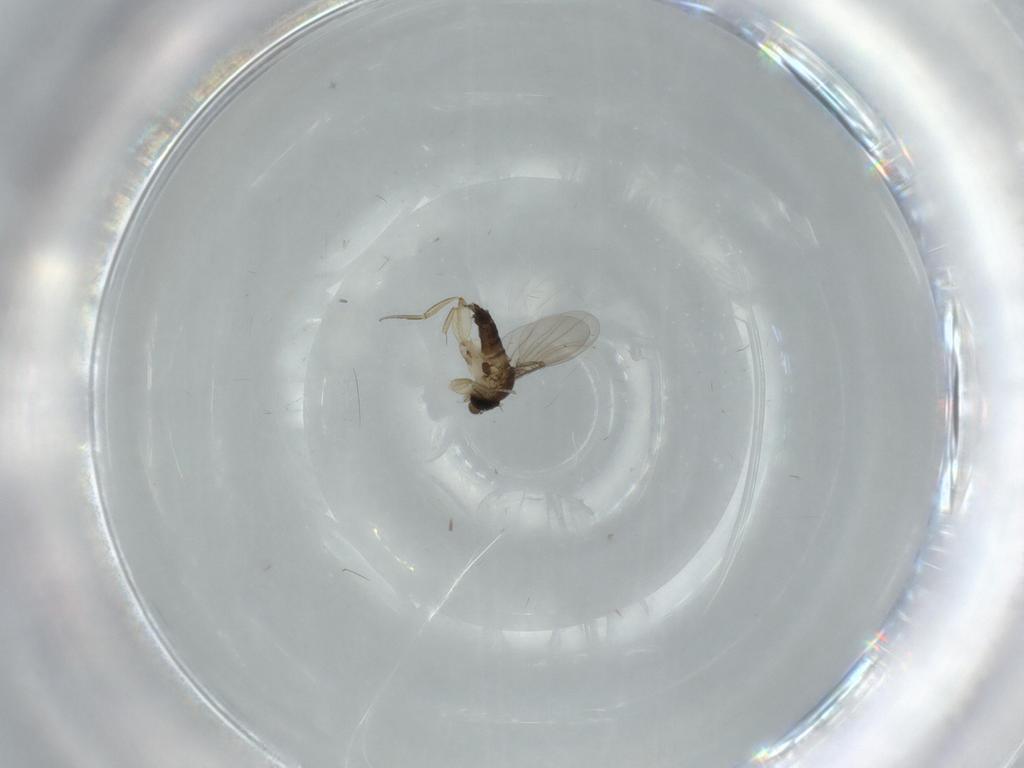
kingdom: Animalia
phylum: Arthropoda
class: Insecta
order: Diptera
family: Phoridae
